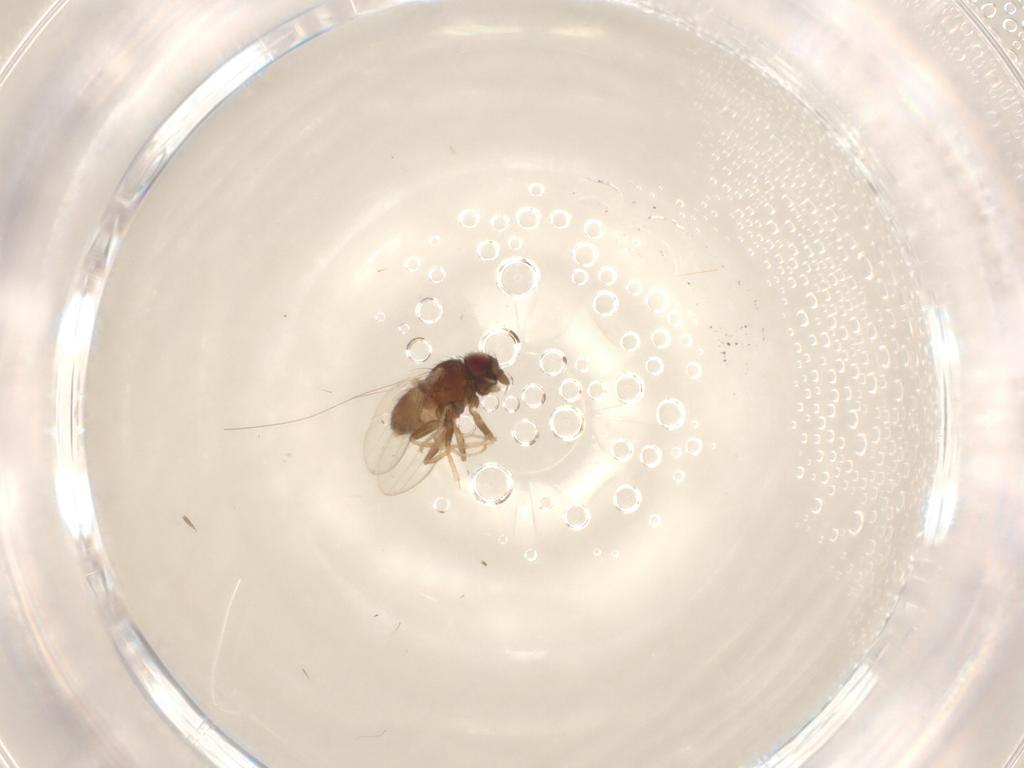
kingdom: Animalia
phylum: Arthropoda
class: Insecta
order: Diptera
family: Milichiidae
